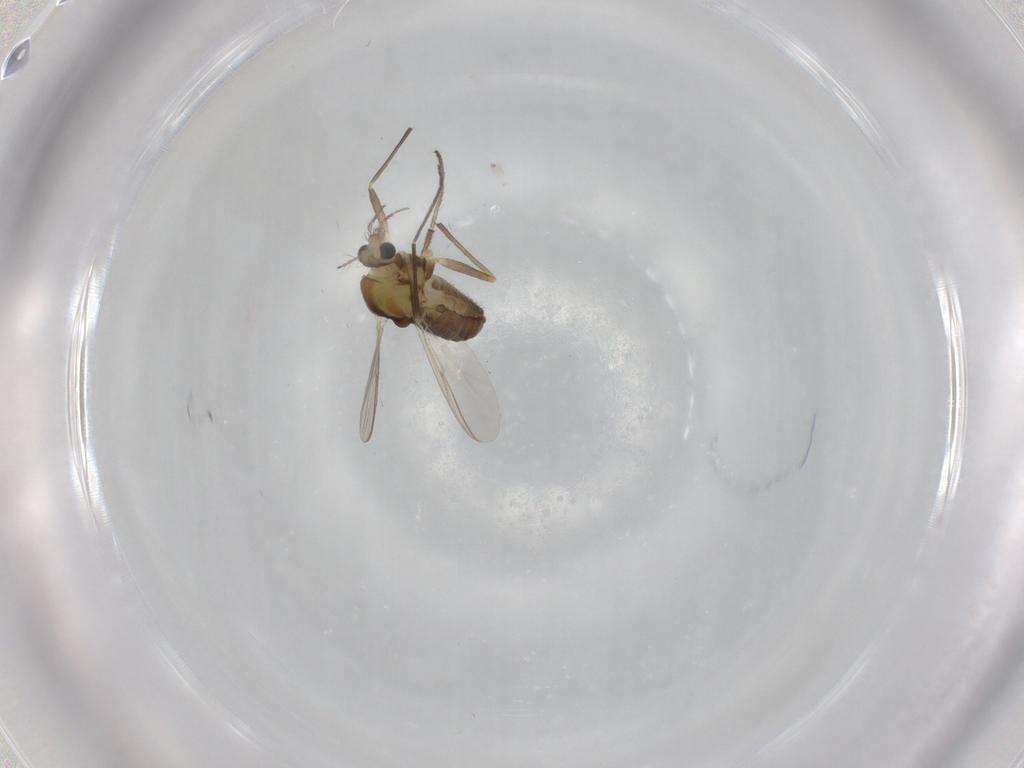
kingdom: Animalia
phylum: Arthropoda
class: Insecta
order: Diptera
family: Chironomidae
